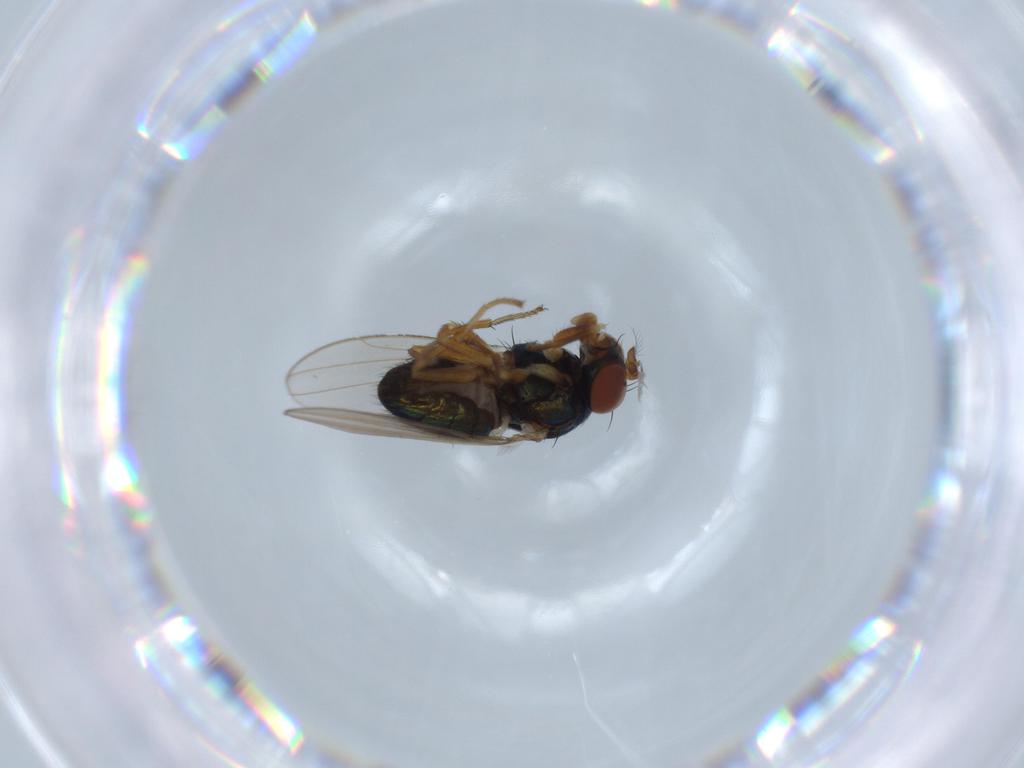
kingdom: Animalia
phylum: Arthropoda
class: Insecta
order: Diptera
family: Ephydridae
